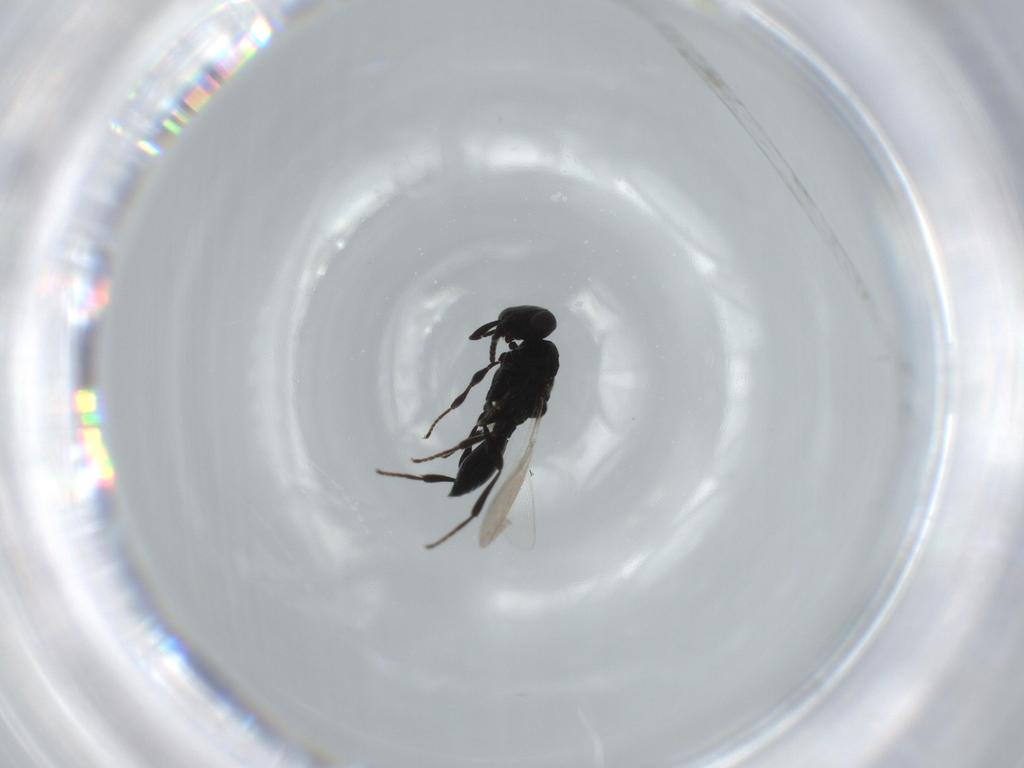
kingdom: Animalia
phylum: Arthropoda
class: Insecta
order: Hymenoptera
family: Platygastridae
